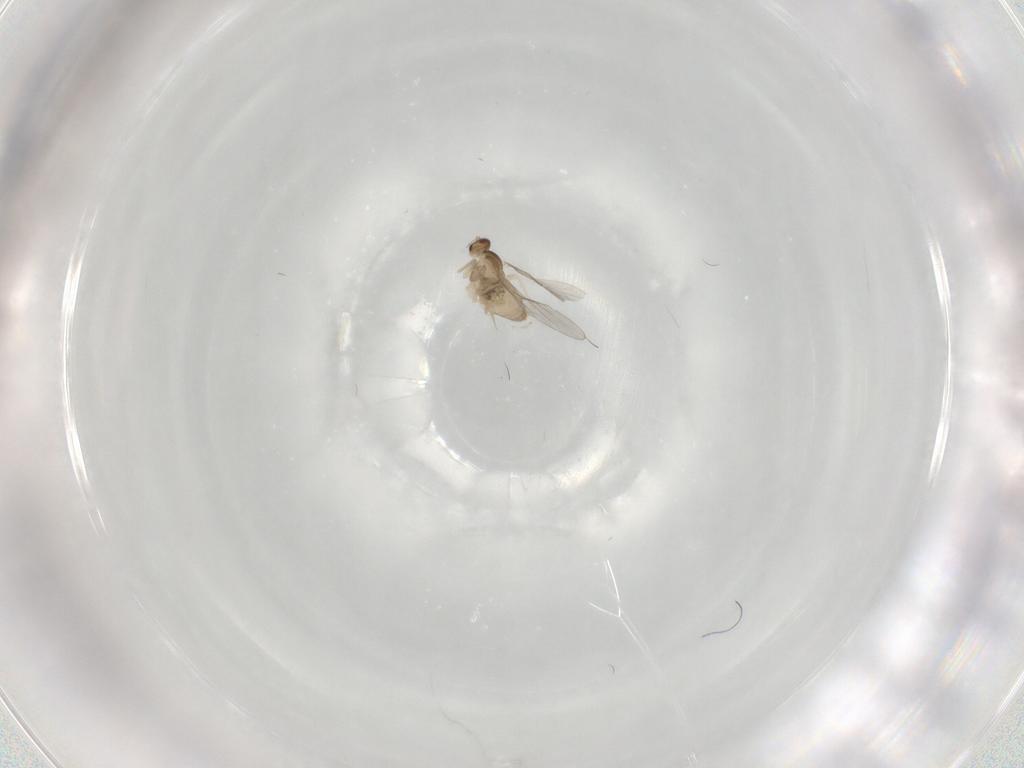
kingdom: Animalia
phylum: Arthropoda
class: Insecta
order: Diptera
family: Cecidomyiidae
